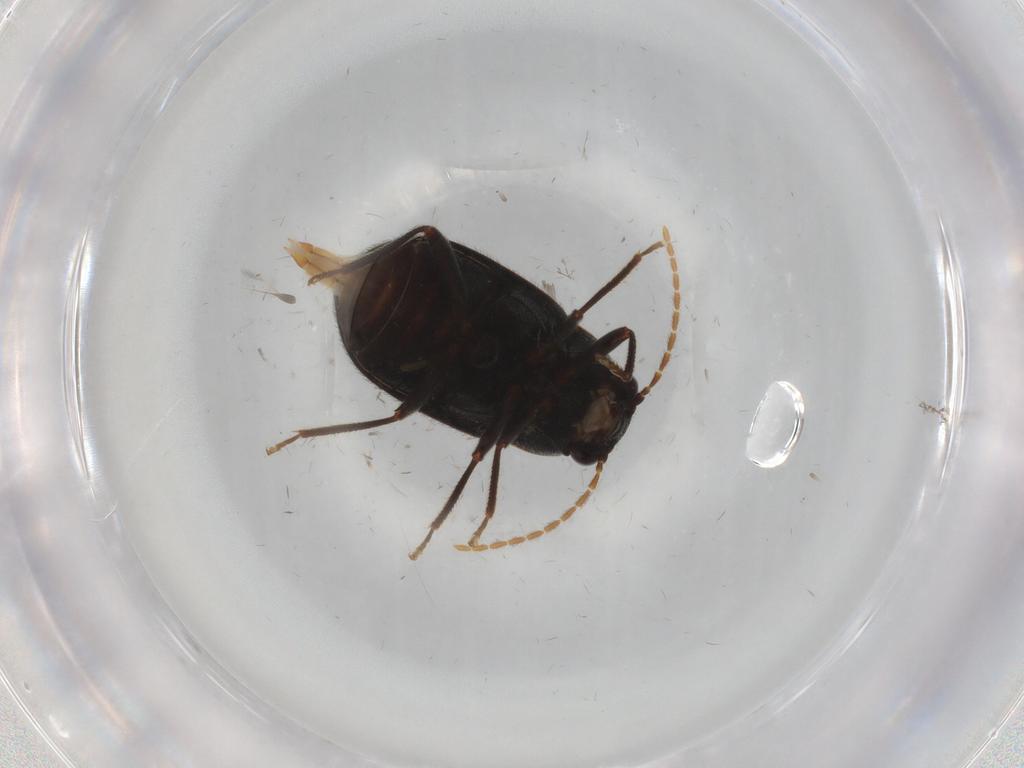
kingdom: Animalia
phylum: Arthropoda
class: Insecta
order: Coleoptera
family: Ptilodactylidae
